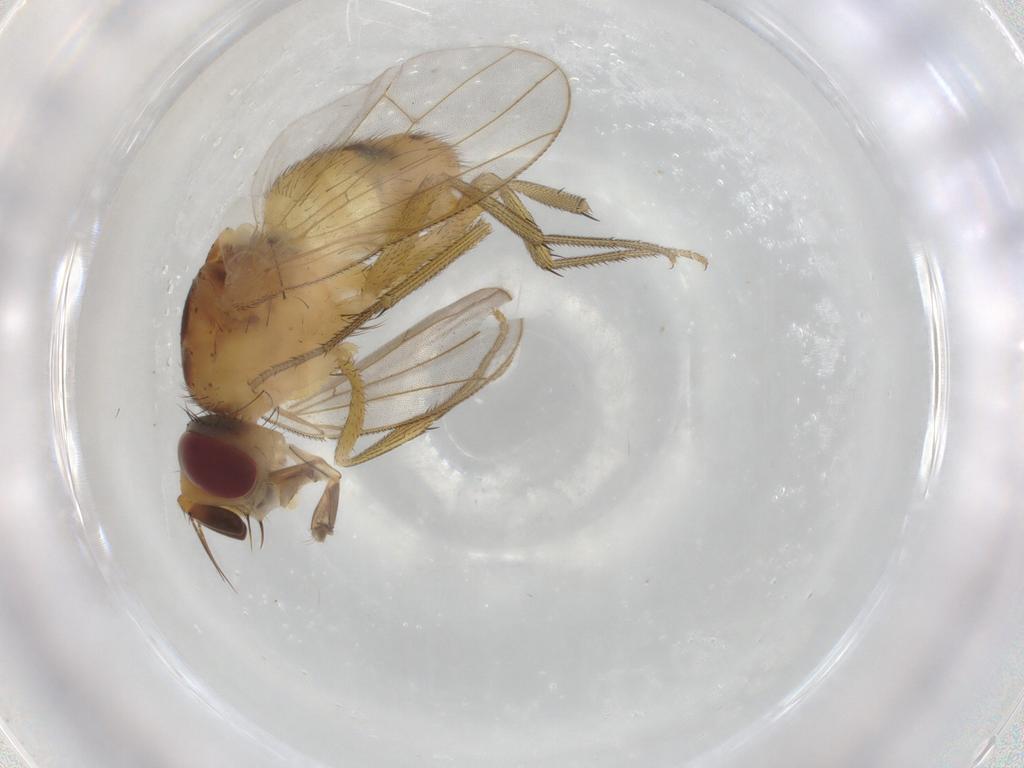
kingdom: Animalia
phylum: Arthropoda
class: Insecta
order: Diptera
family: Muscidae
